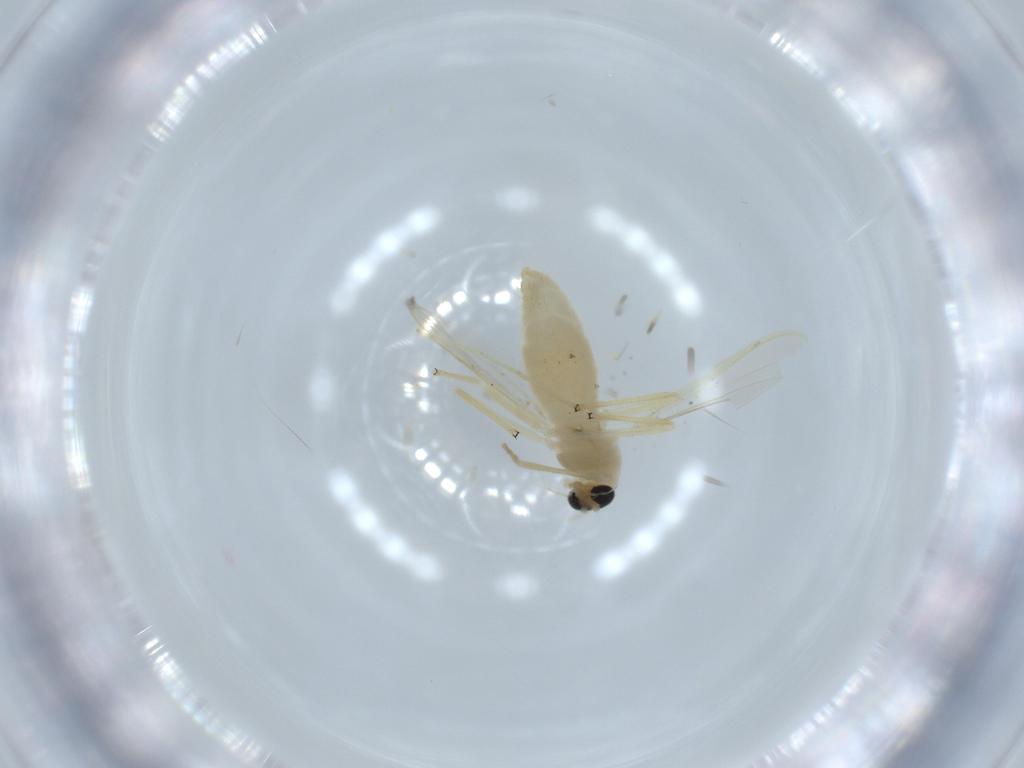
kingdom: Animalia
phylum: Arthropoda
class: Insecta
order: Diptera
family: Chironomidae
